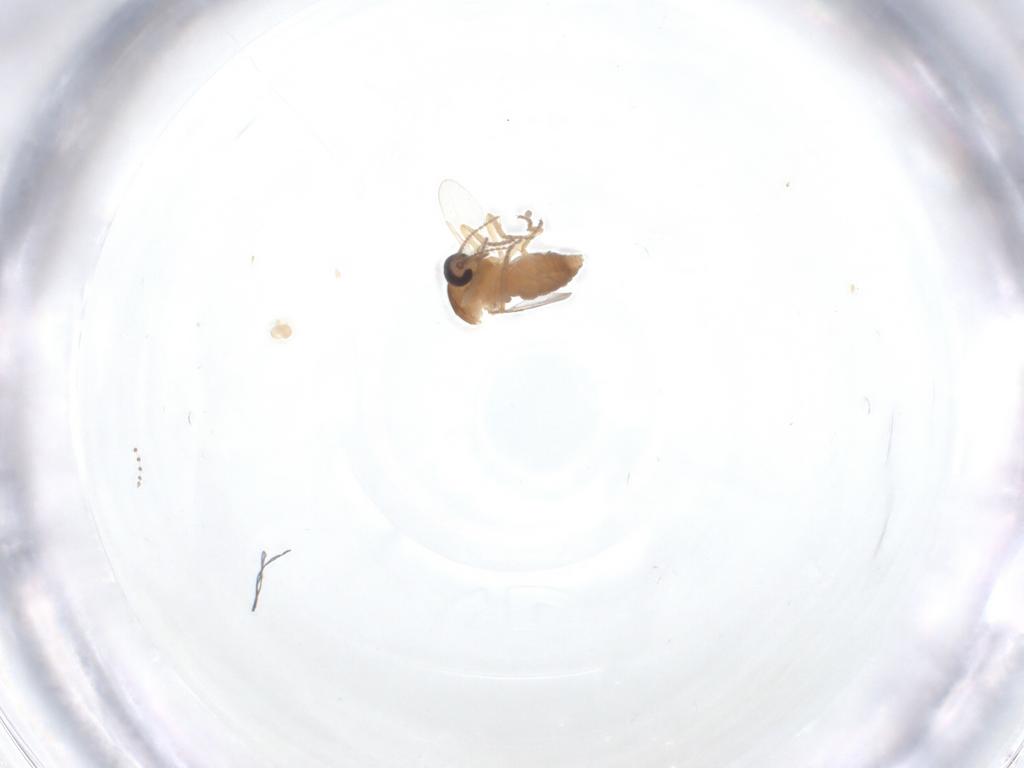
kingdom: Animalia
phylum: Arthropoda
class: Insecta
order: Diptera
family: Ceratopogonidae
